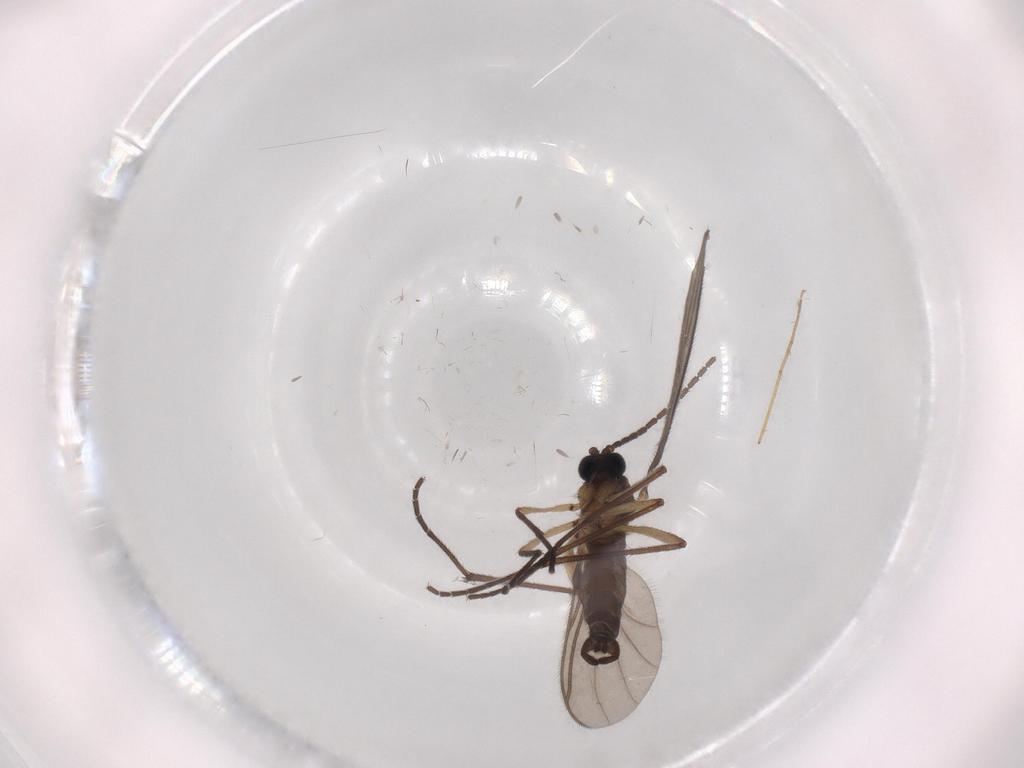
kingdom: Animalia
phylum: Arthropoda
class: Insecta
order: Diptera
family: Sciaridae
